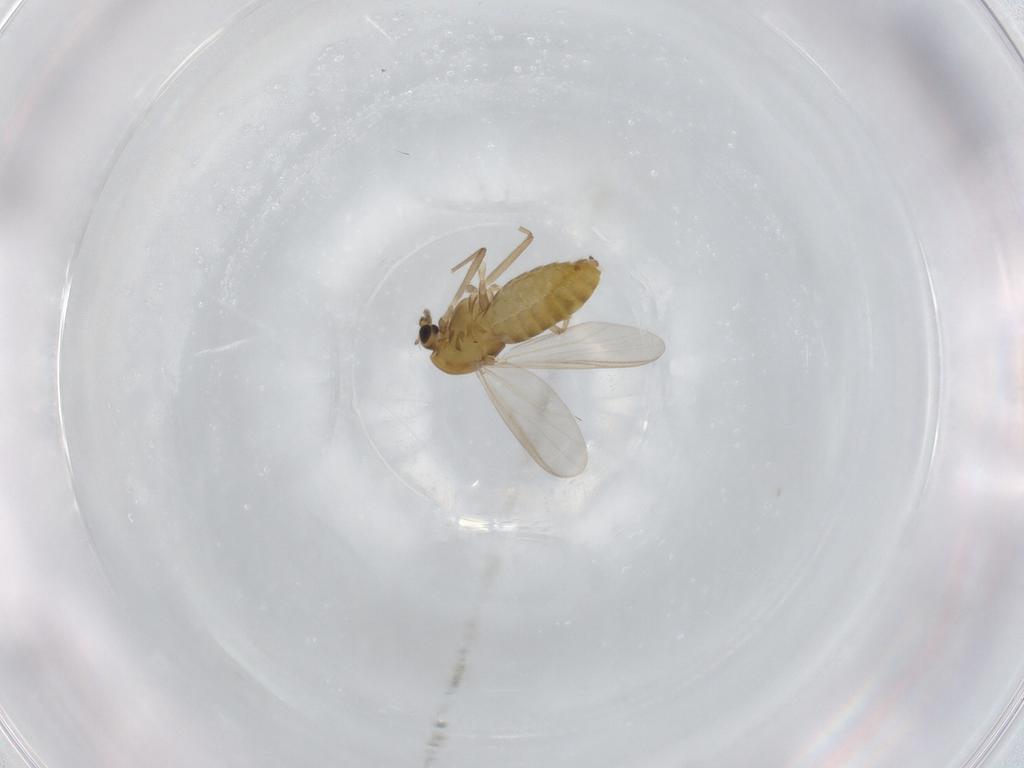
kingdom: Animalia
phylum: Arthropoda
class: Insecta
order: Diptera
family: Chironomidae
